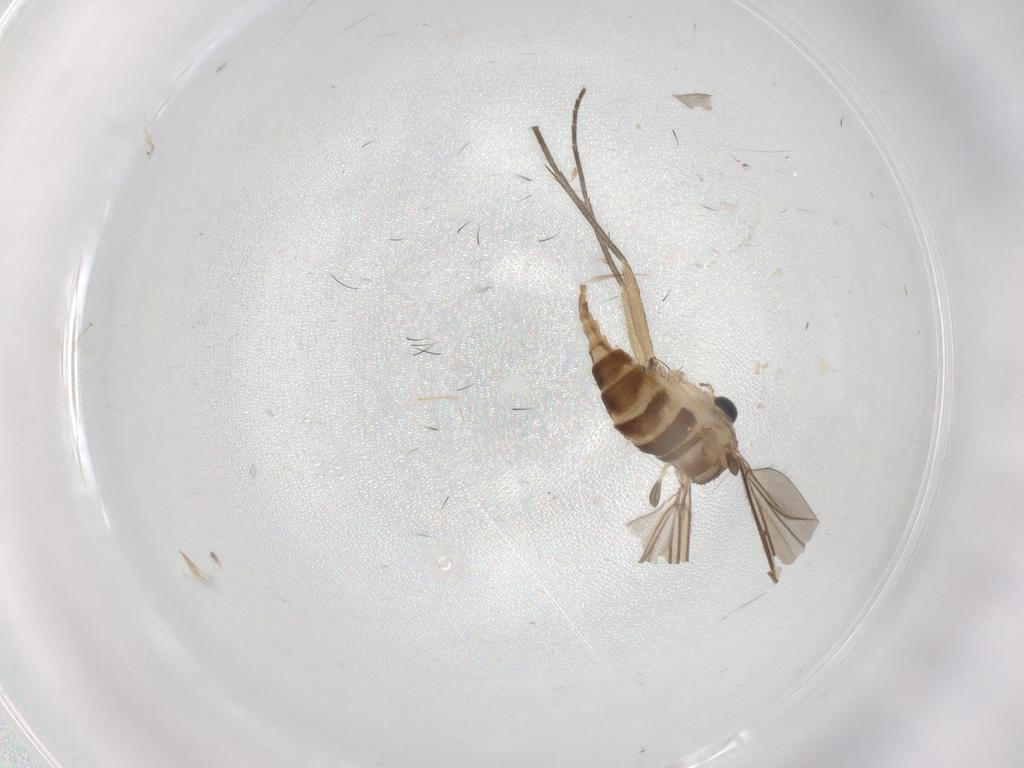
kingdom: Animalia
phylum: Arthropoda
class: Insecta
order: Diptera
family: Sciaridae
